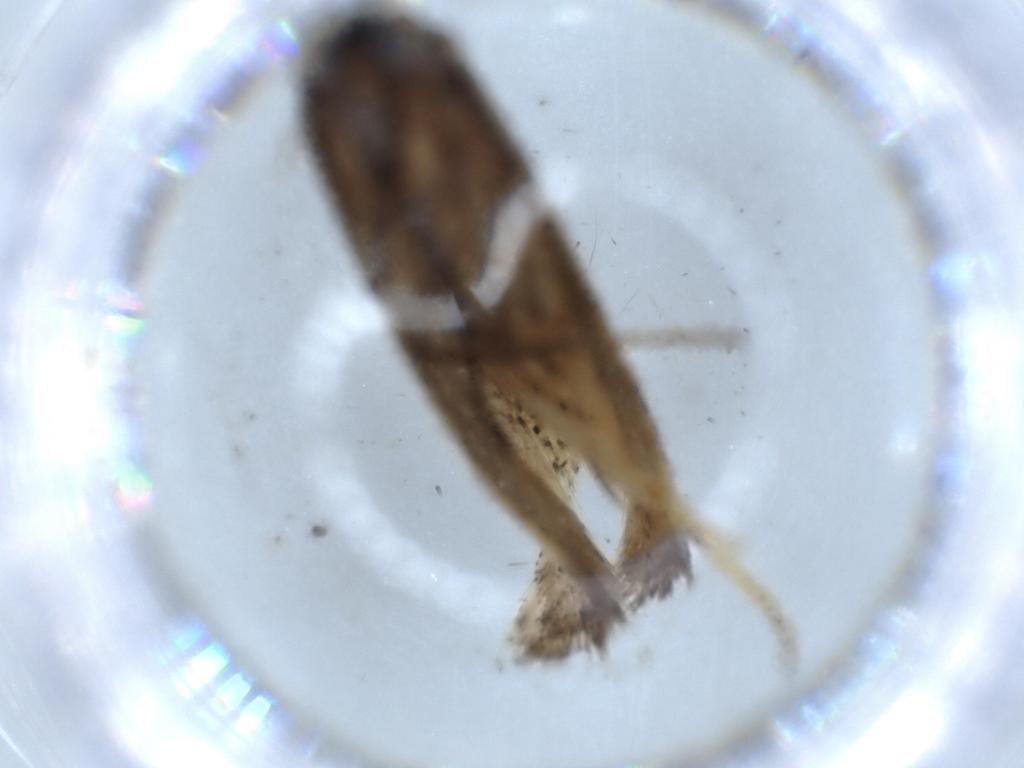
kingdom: Animalia
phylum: Arthropoda
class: Insecta
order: Lepidoptera
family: Oecophoridae
